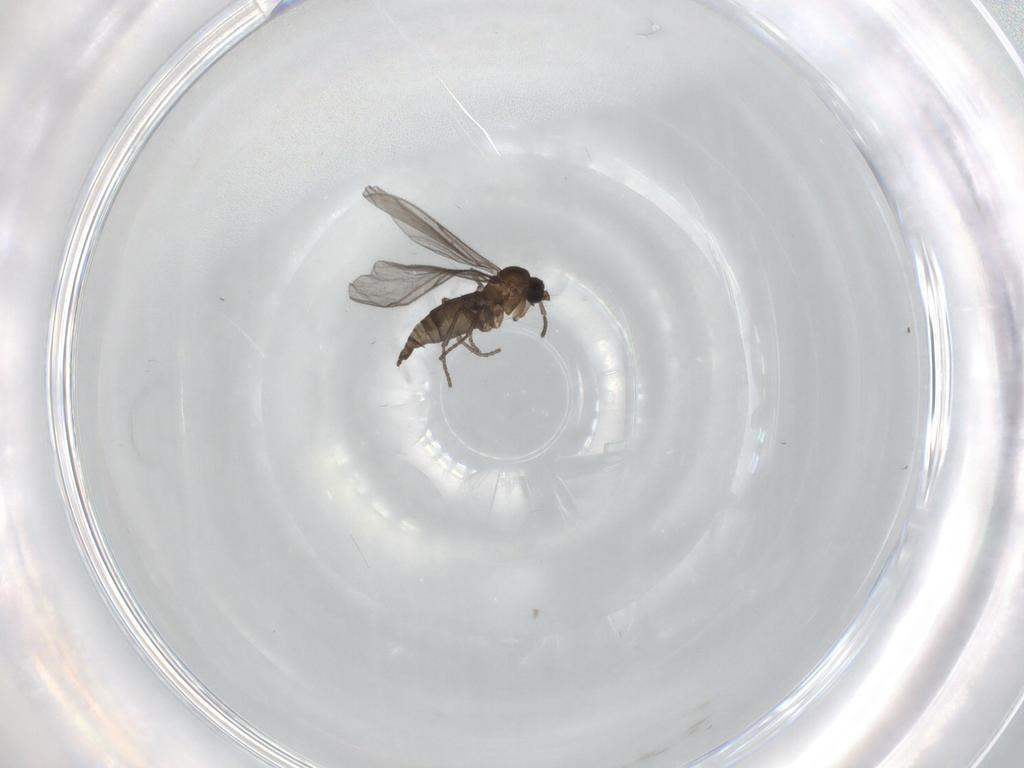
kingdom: Animalia
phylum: Arthropoda
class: Insecta
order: Diptera
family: Sciaridae
